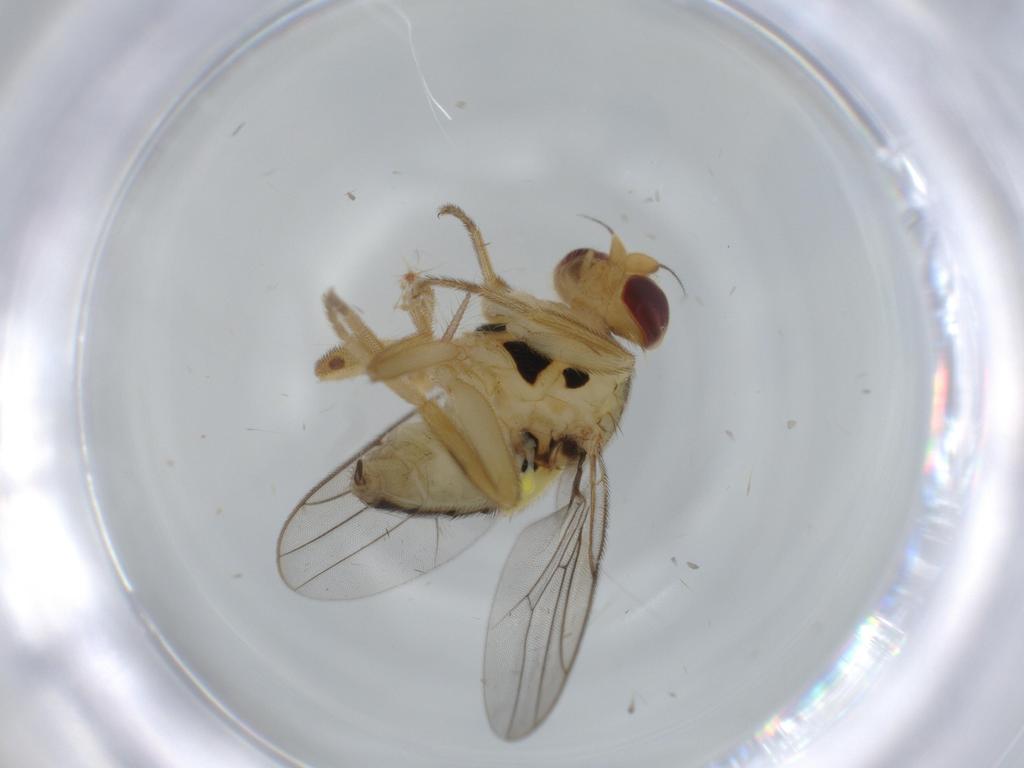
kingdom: Animalia
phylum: Arthropoda
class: Insecta
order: Diptera
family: Chloropidae
